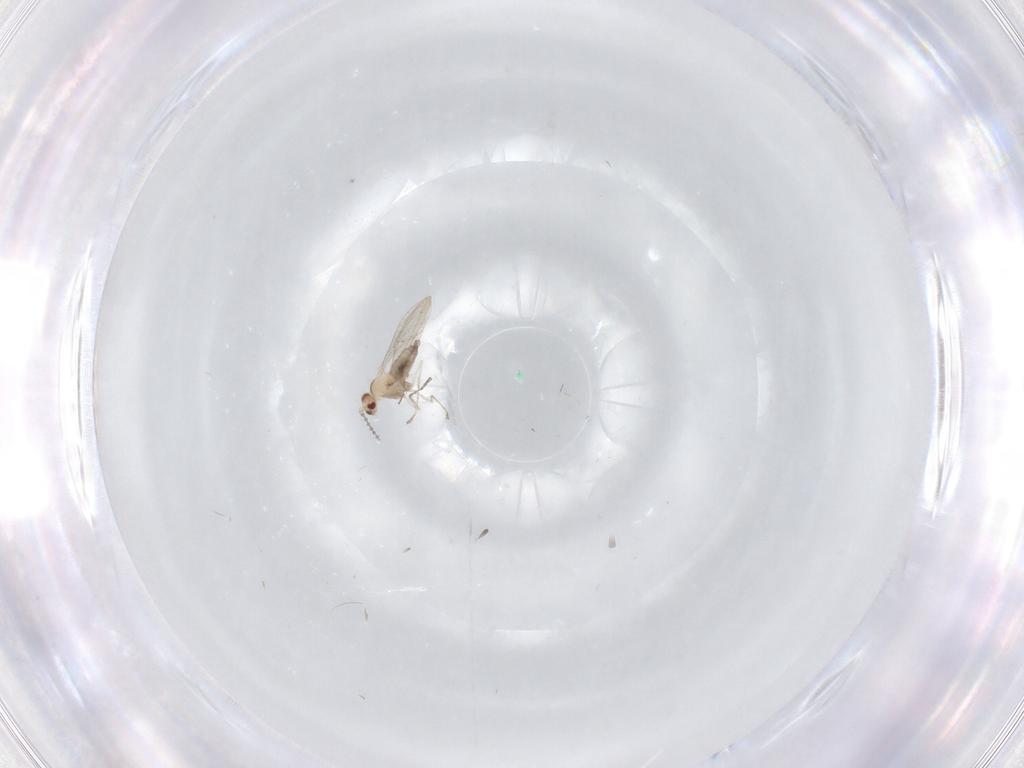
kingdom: Animalia
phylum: Arthropoda
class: Insecta
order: Diptera
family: Cecidomyiidae
